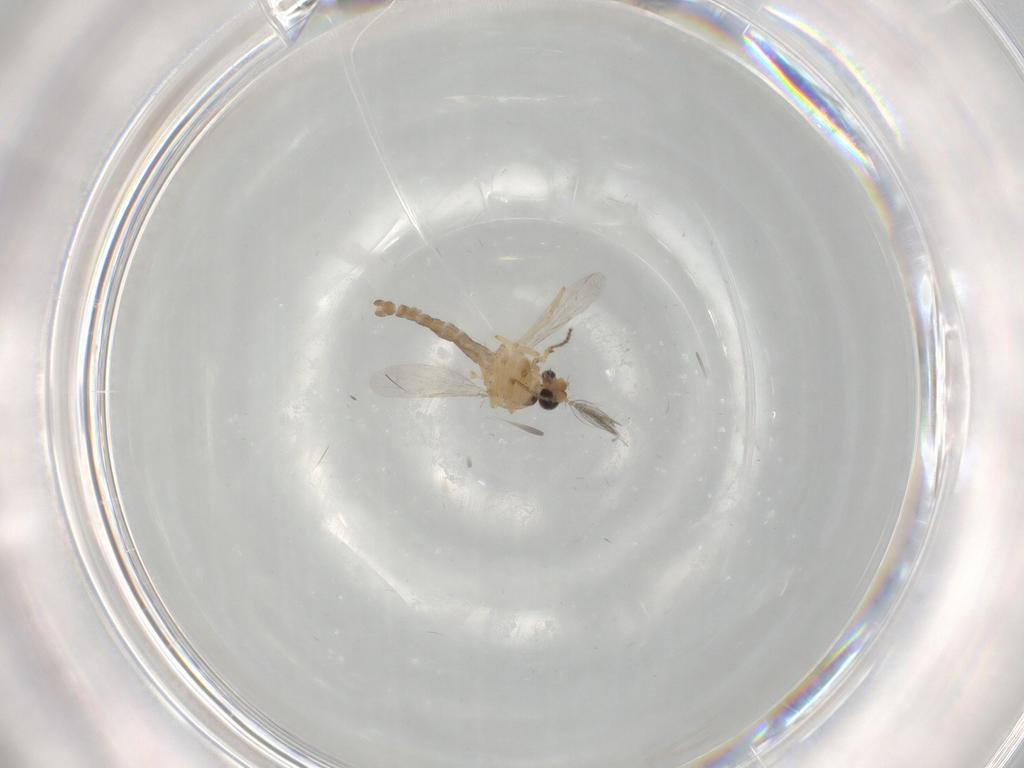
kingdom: Animalia
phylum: Arthropoda
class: Insecta
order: Diptera
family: Ceratopogonidae
